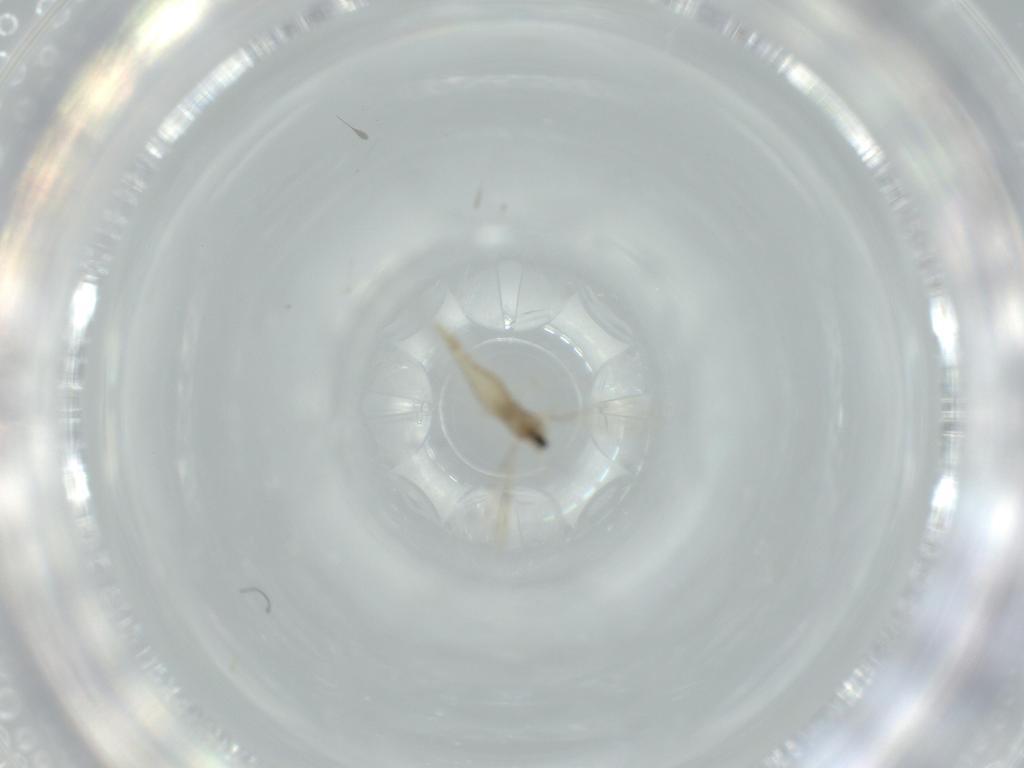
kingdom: Animalia
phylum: Arthropoda
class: Insecta
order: Diptera
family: Cecidomyiidae
